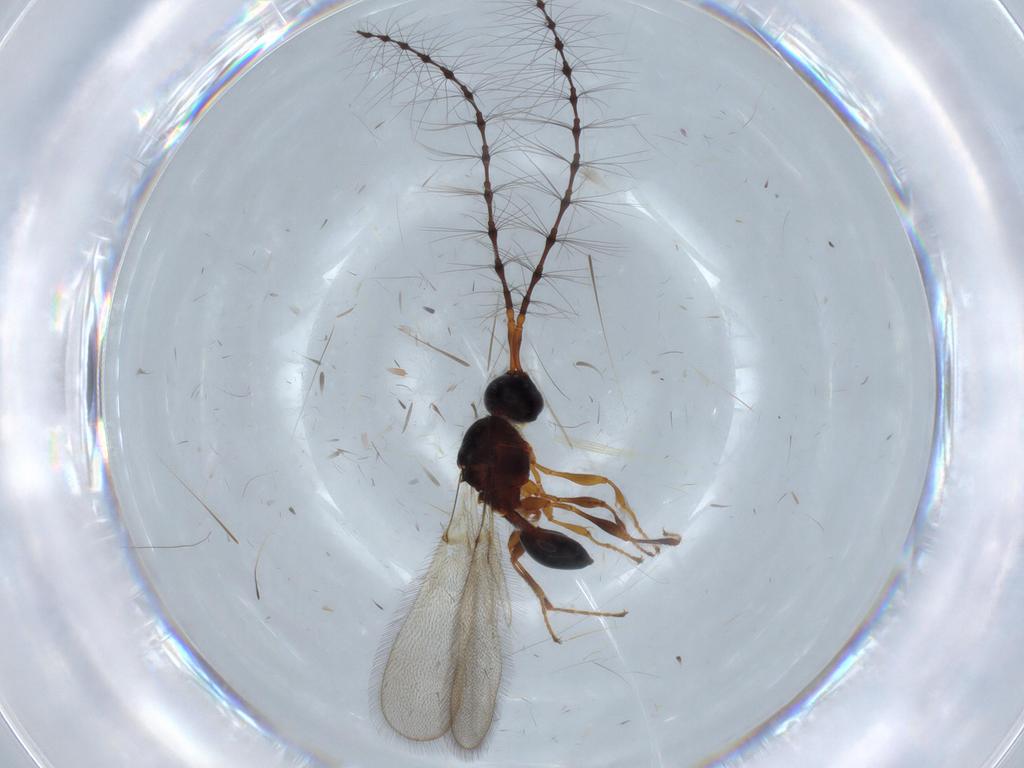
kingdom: Animalia
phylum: Arthropoda
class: Insecta
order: Hymenoptera
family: Diapriidae
